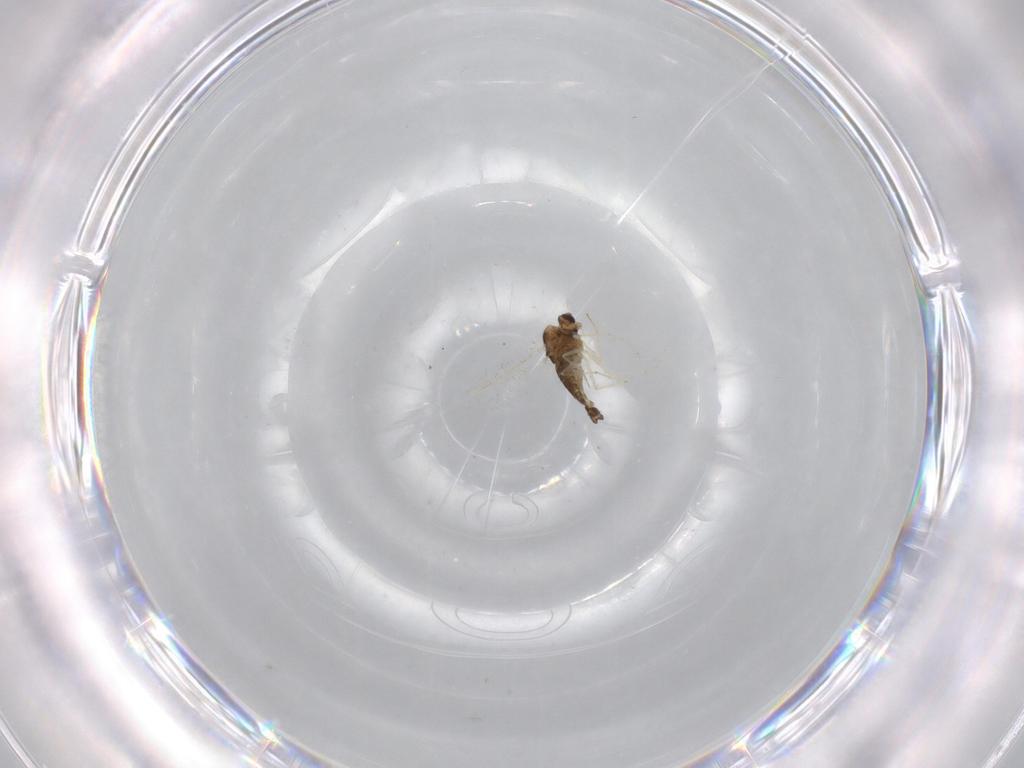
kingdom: Animalia
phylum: Arthropoda
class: Insecta
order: Diptera
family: Chironomidae
